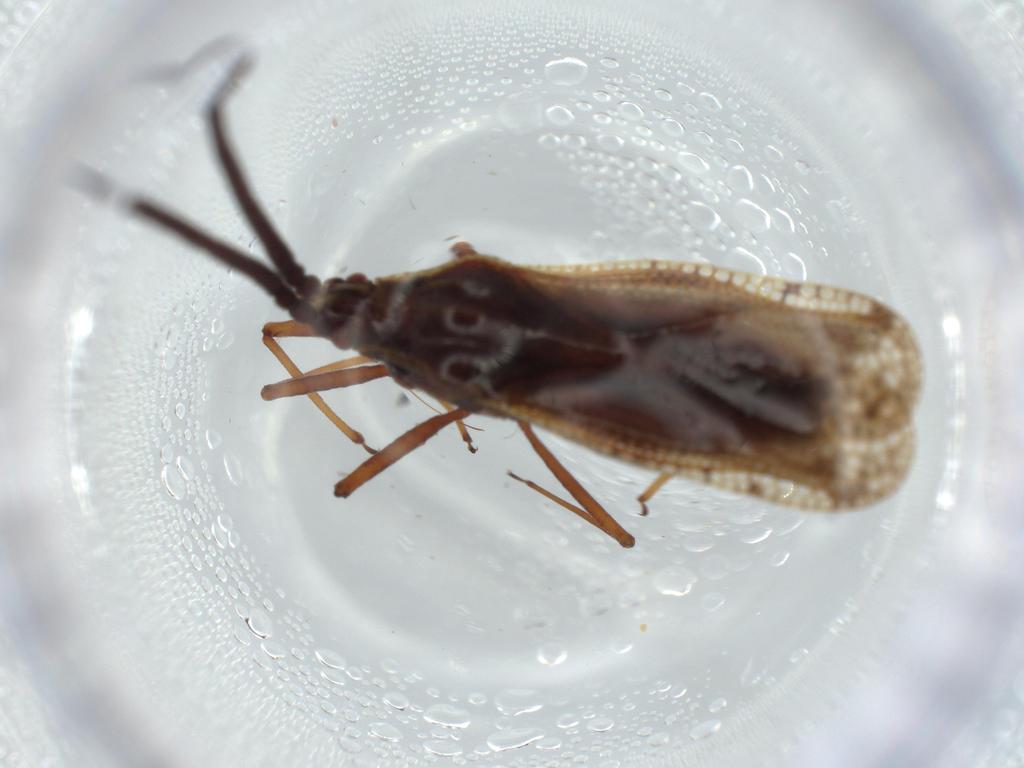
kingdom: Animalia
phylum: Arthropoda
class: Insecta
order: Hemiptera
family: Tingidae
